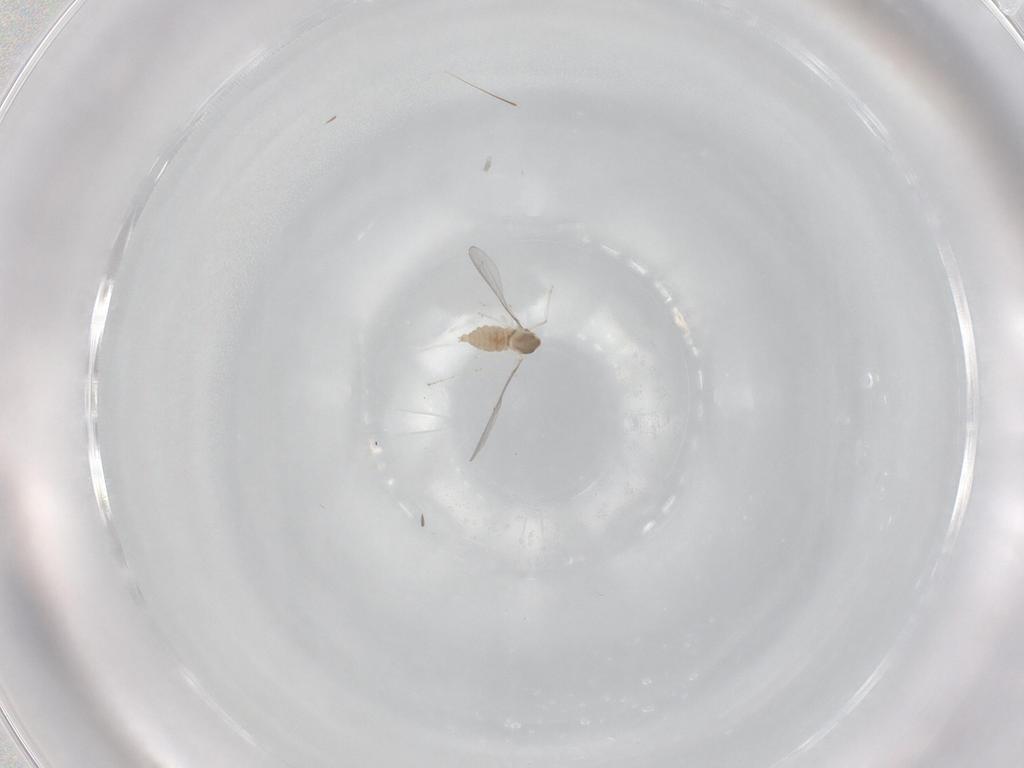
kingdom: Animalia
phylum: Arthropoda
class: Insecta
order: Diptera
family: Cecidomyiidae
